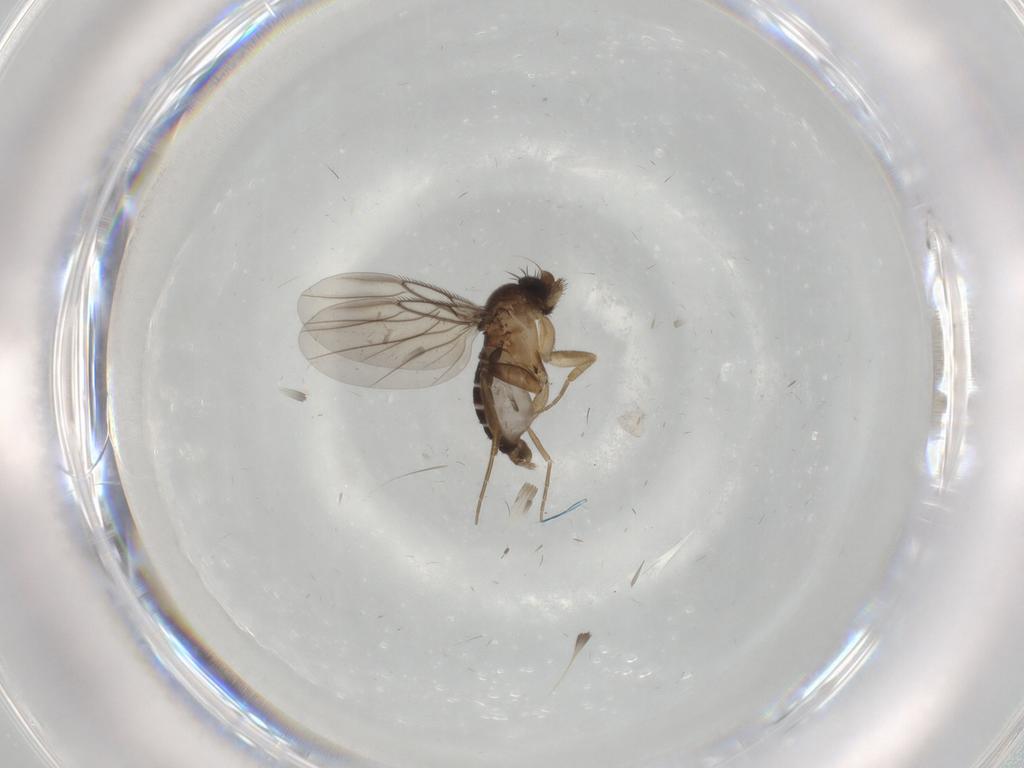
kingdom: Animalia
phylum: Arthropoda
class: Insecta
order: Diptera
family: Phoridae
